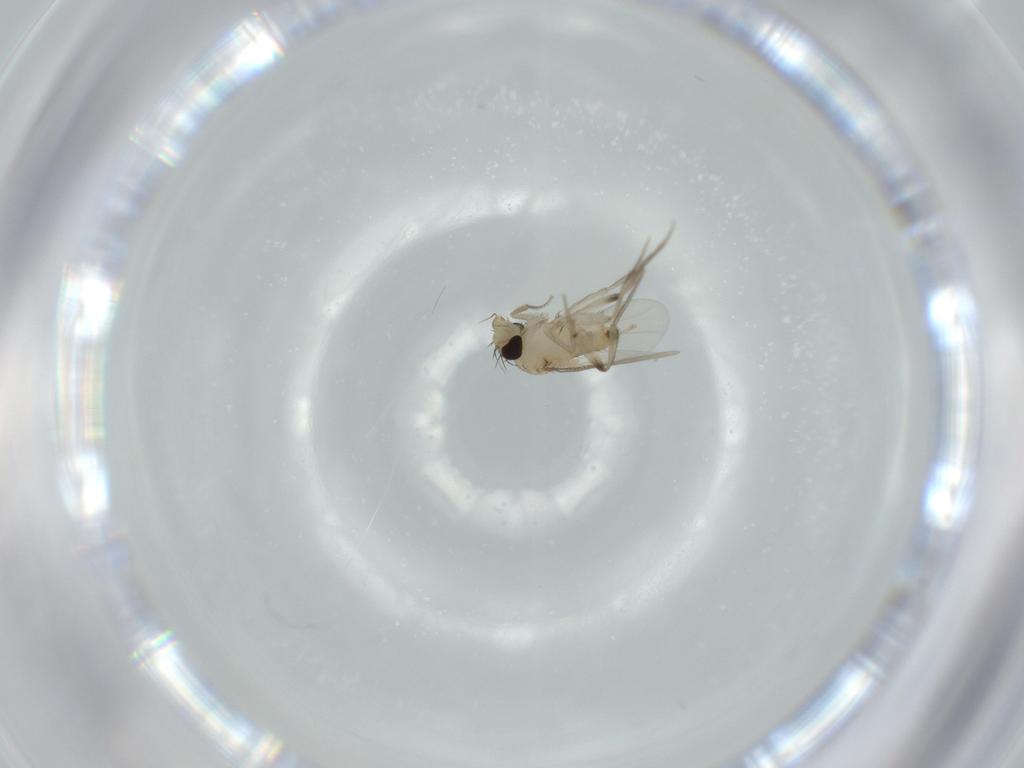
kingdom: Animalia
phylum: Arthropoda
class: Insecta
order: Diptera
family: Phoridae
